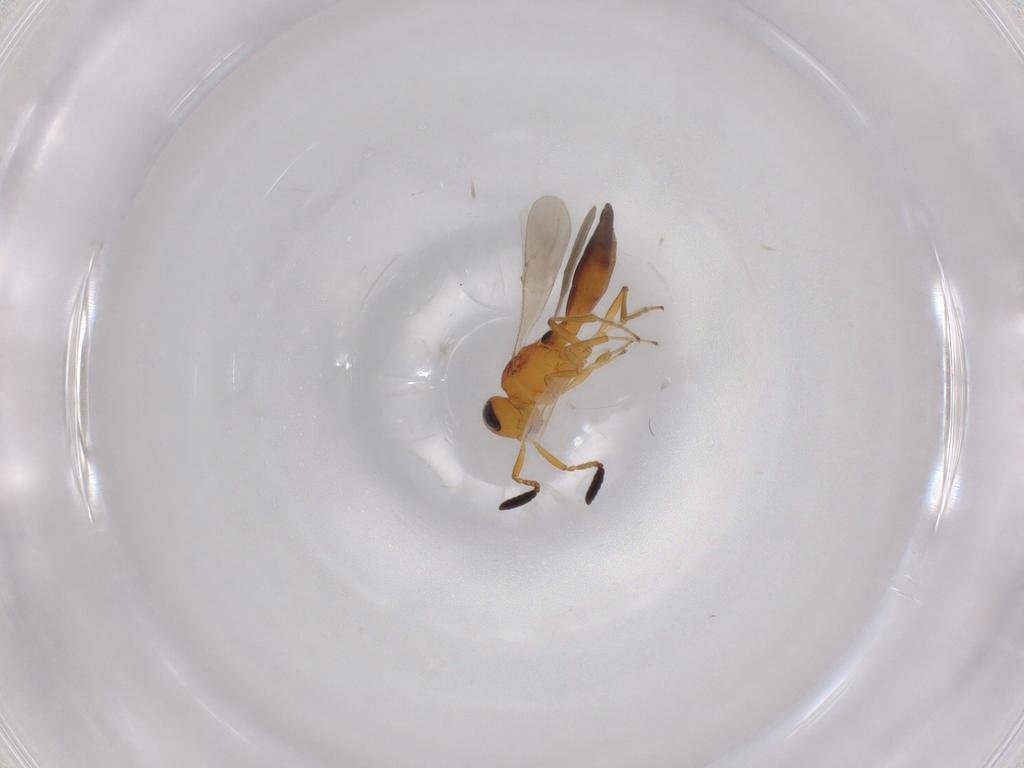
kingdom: Animalia
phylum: Arthropoda
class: Insecta
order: Hymenoptera
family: Scelionidae
